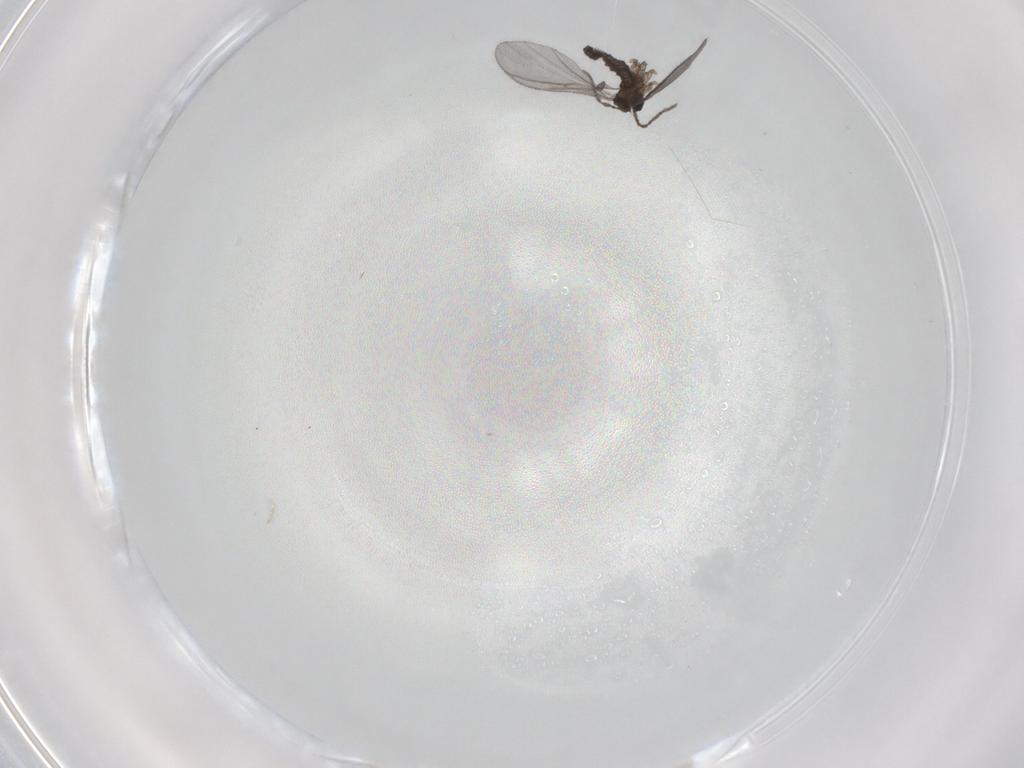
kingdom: Animalia
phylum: Arthropoda
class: Insecta
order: Diptera
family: Sciaridae
